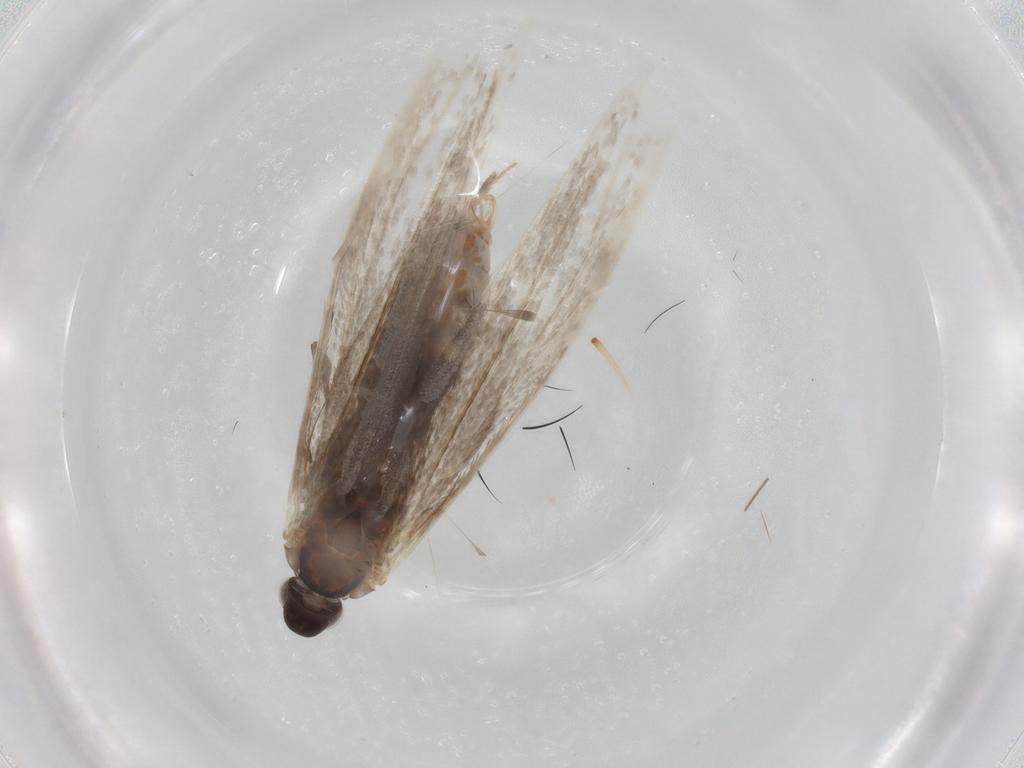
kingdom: Animalia
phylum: Arthropoda
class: Insecta
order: Lepidoptera
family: Coleophoridae
